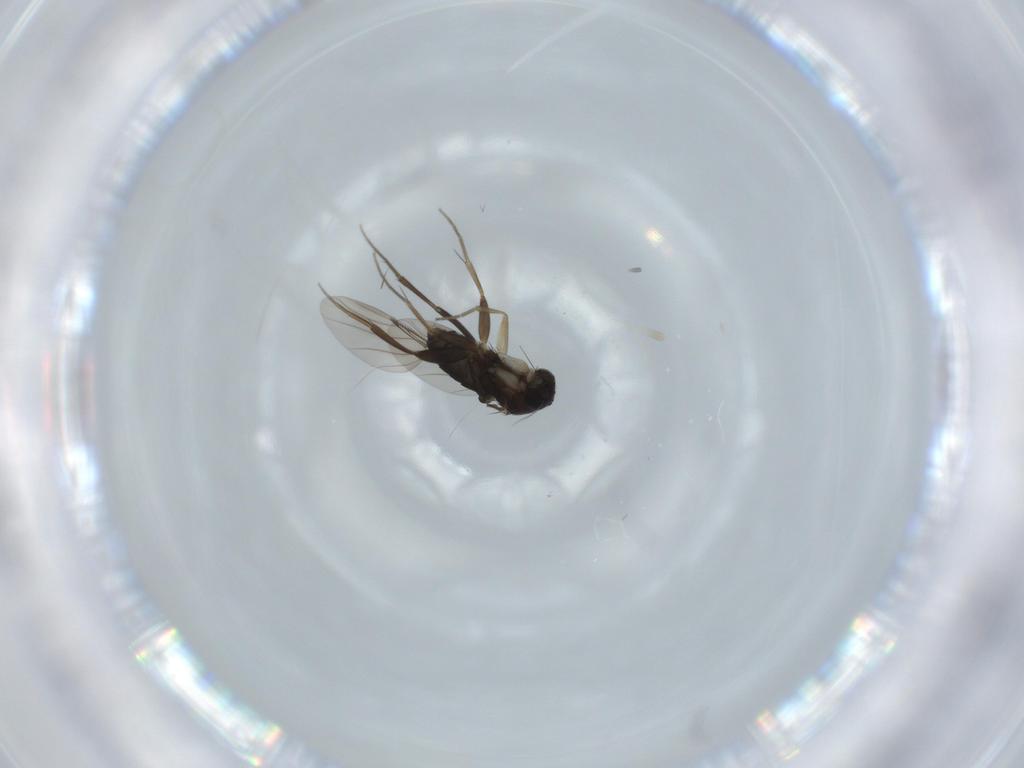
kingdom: Animalia
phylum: Arthropoda
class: Insecta
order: Diptera
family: Phoridae
